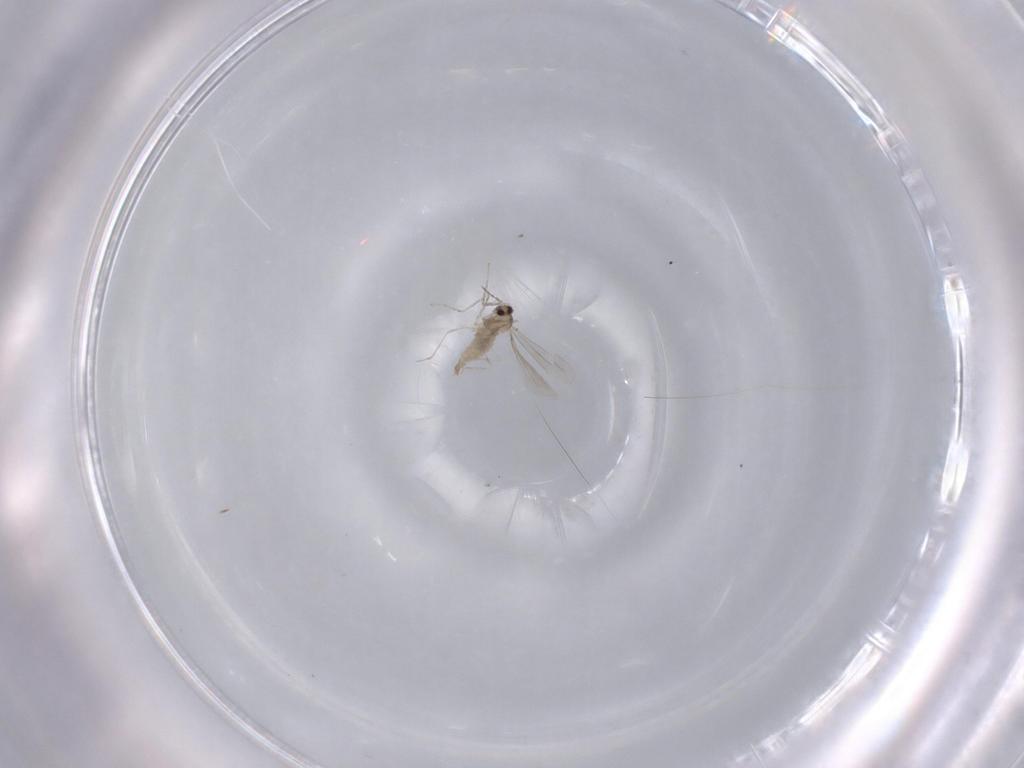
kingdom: Animalia
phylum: Arthropoda
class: Insecta
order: Diptera
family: Cecidomyiidae
